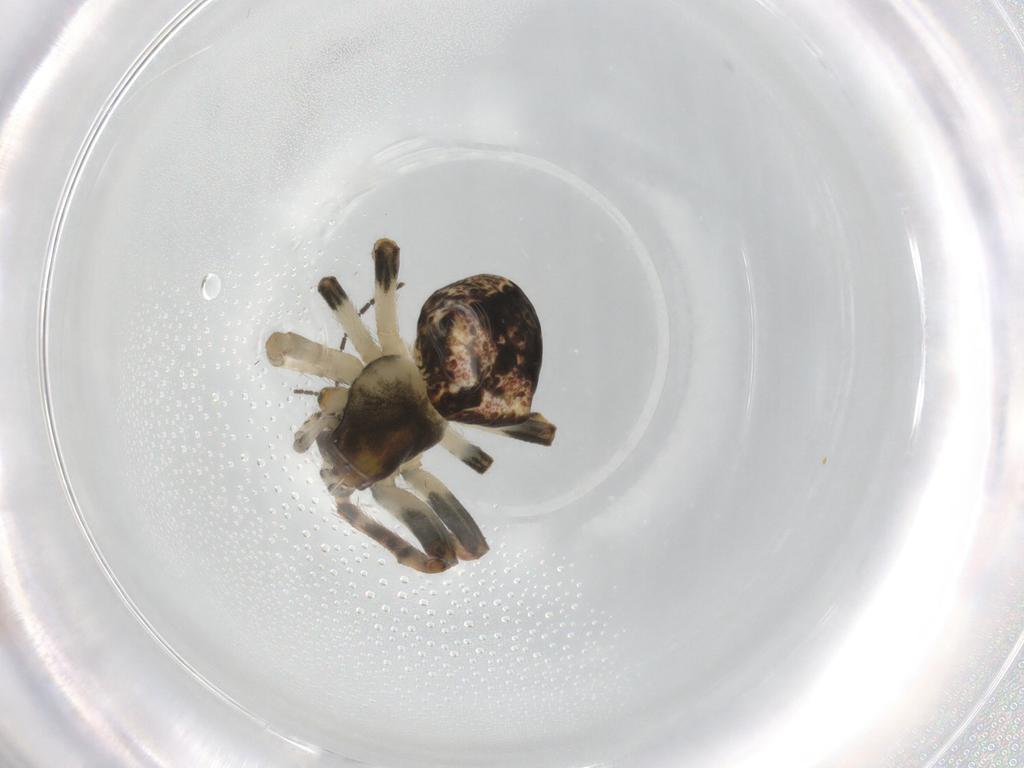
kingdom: Animalia
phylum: Arthropoda
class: Arachnida
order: Araneae
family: Araneidae
